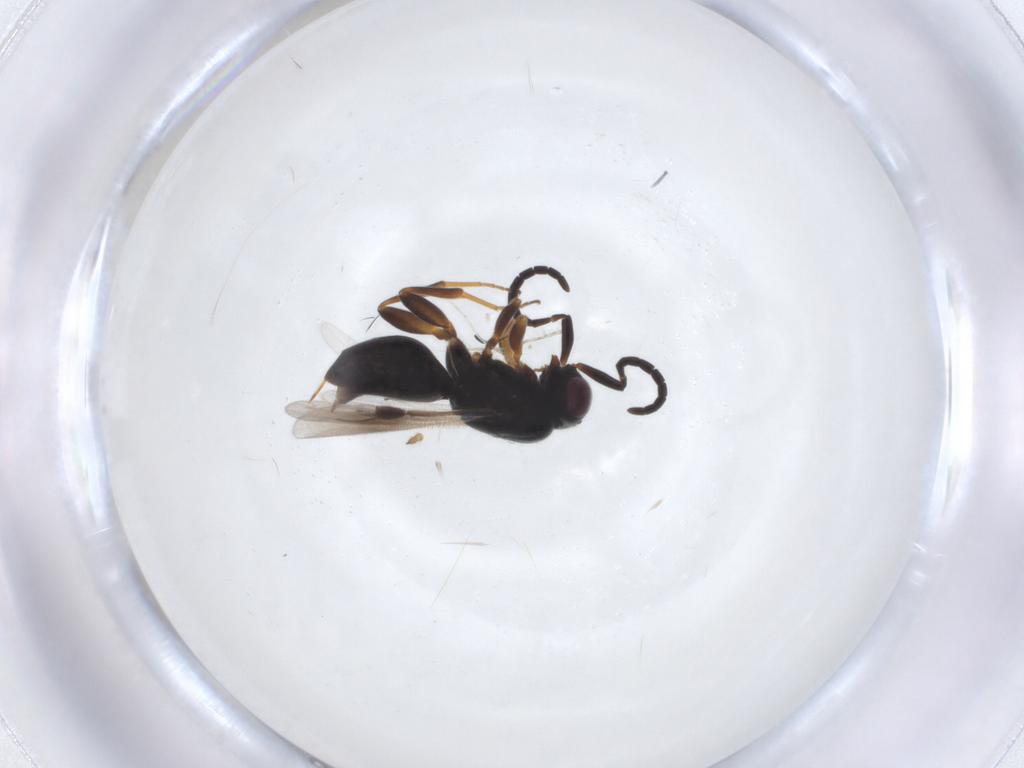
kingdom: Animalia
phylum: Arthropoda
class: Insecta
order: Hymenoptera
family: Megaspilidae
